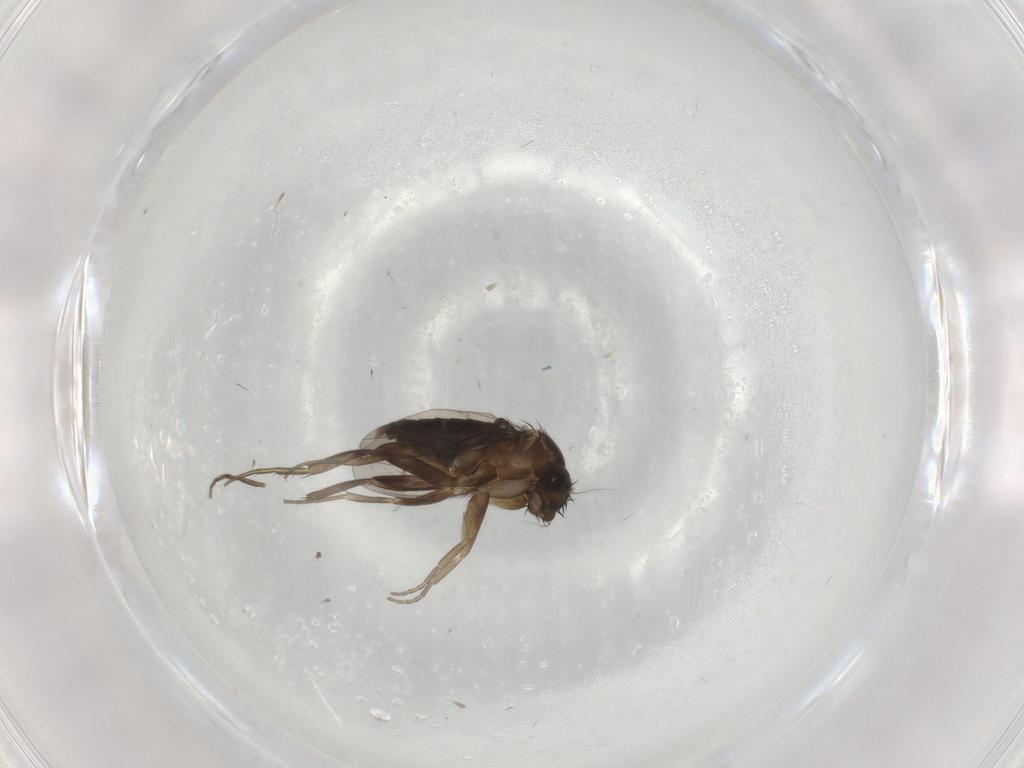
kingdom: Animalia
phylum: Arthropoda
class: Insecta
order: Diptera
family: Phoridae
